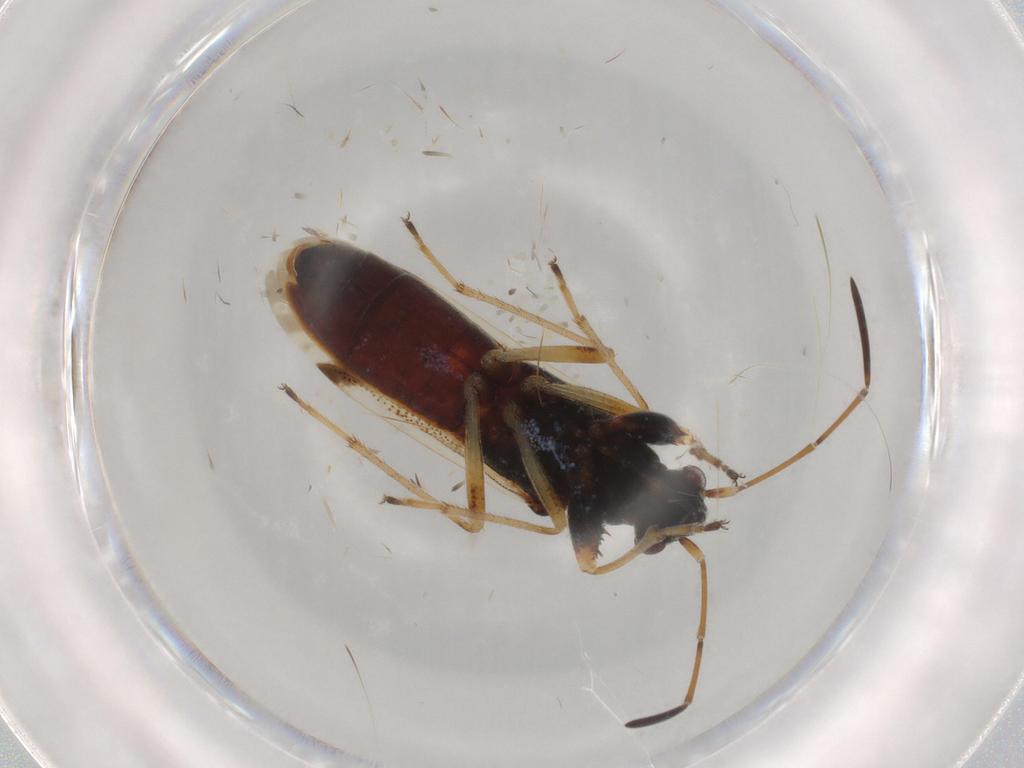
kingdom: Animalia
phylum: Arthropoda
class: Insecta
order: Hemiptera
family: Rhyparochromidae
